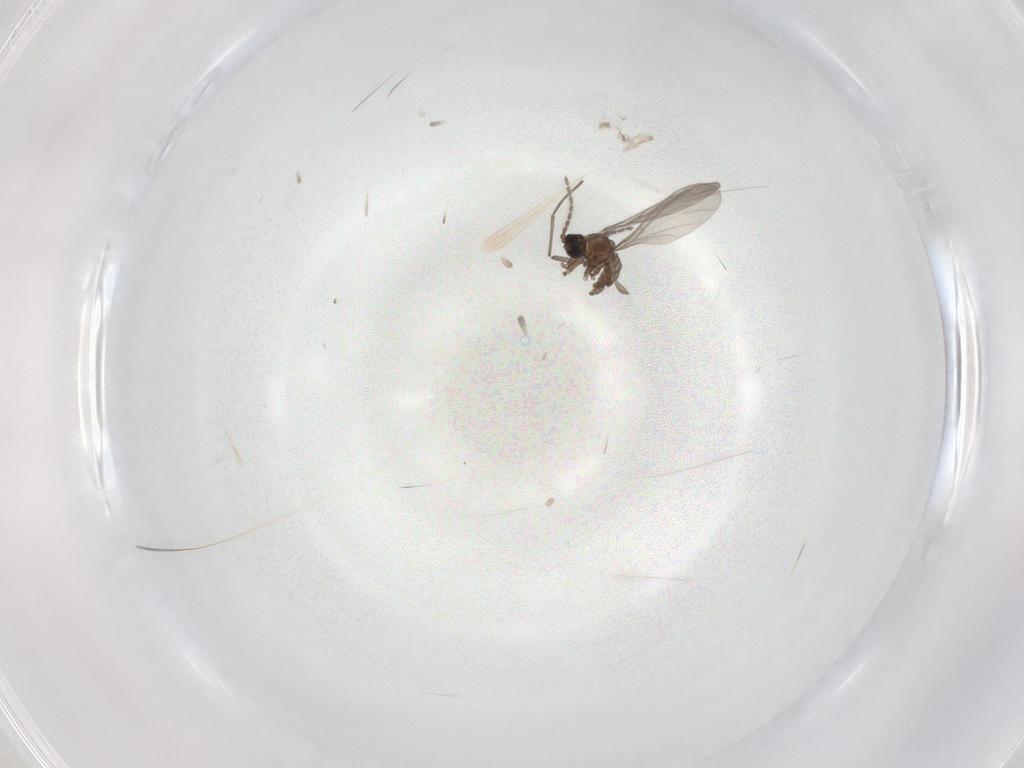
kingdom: Animalia
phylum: Arthropoda
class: Insecta
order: Diptera
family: Sciaridae
